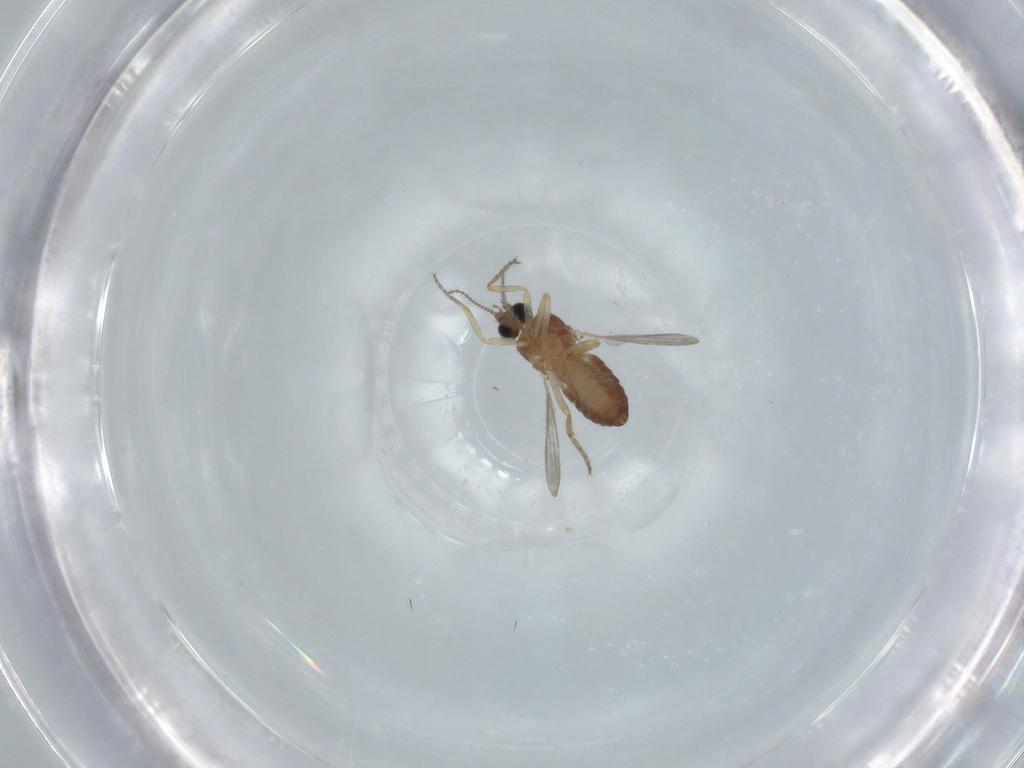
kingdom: Animalia
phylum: Arthropoda
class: Insecta
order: Diptera
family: Ceratopogonidae
